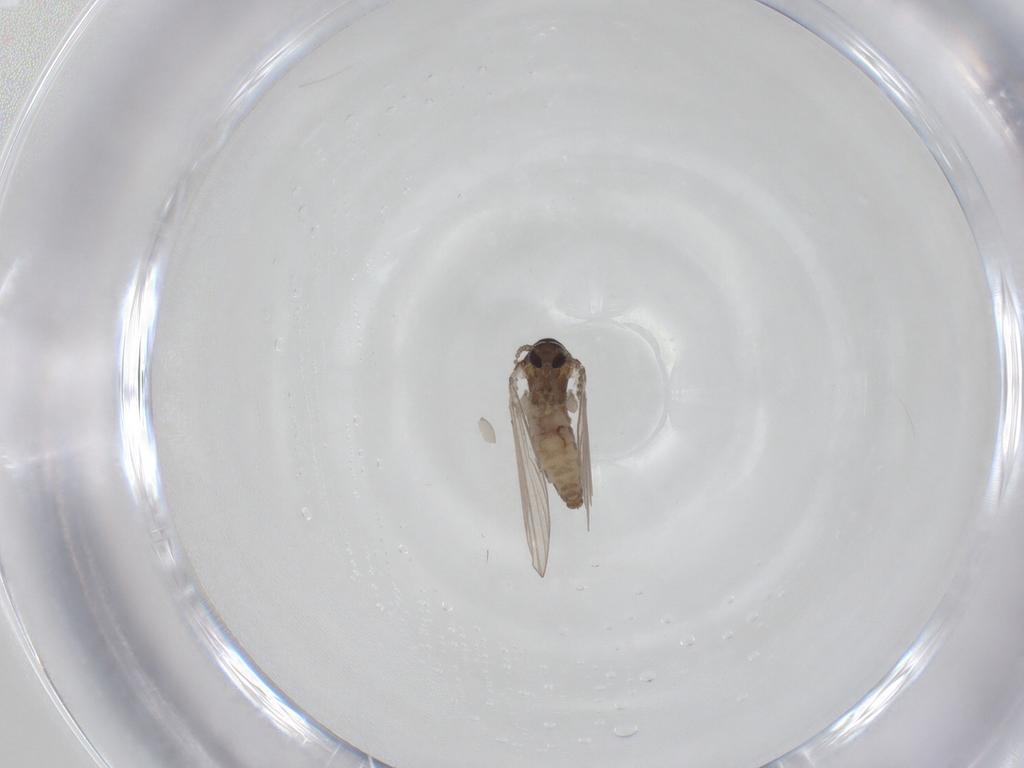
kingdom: Animalia
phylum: Arthropoda
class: Insecta
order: Diptera
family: Psychodidae
